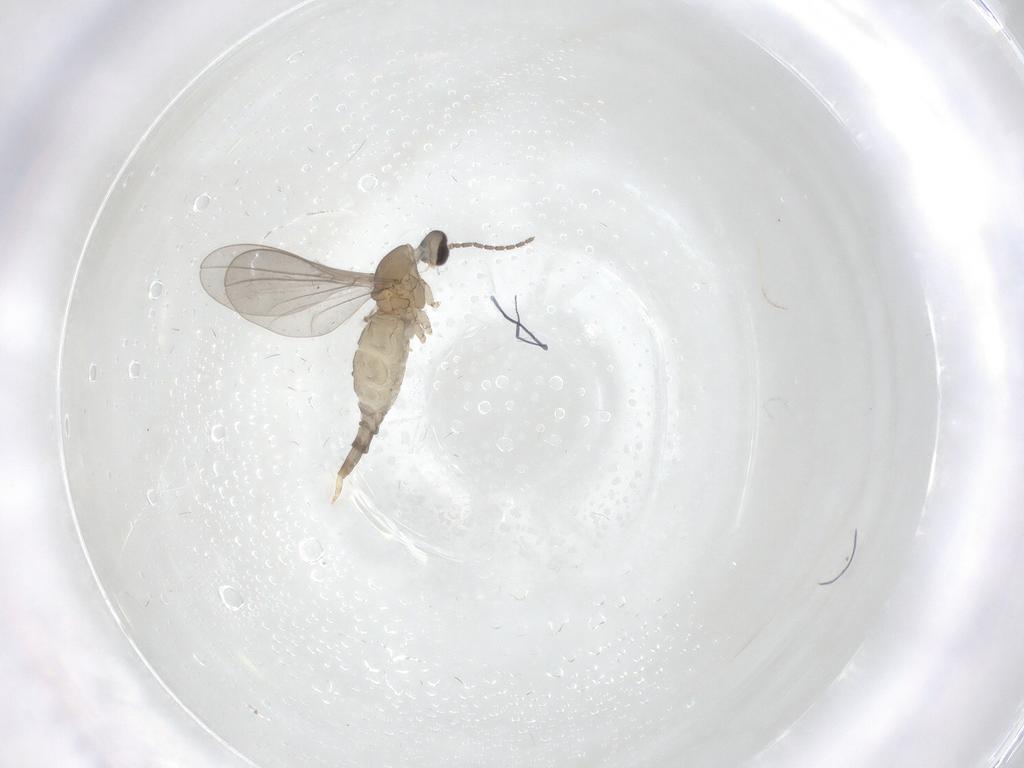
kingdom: Animalia
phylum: Arthropoda
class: Insecta
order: Diptera
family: Cecidomyiidae
